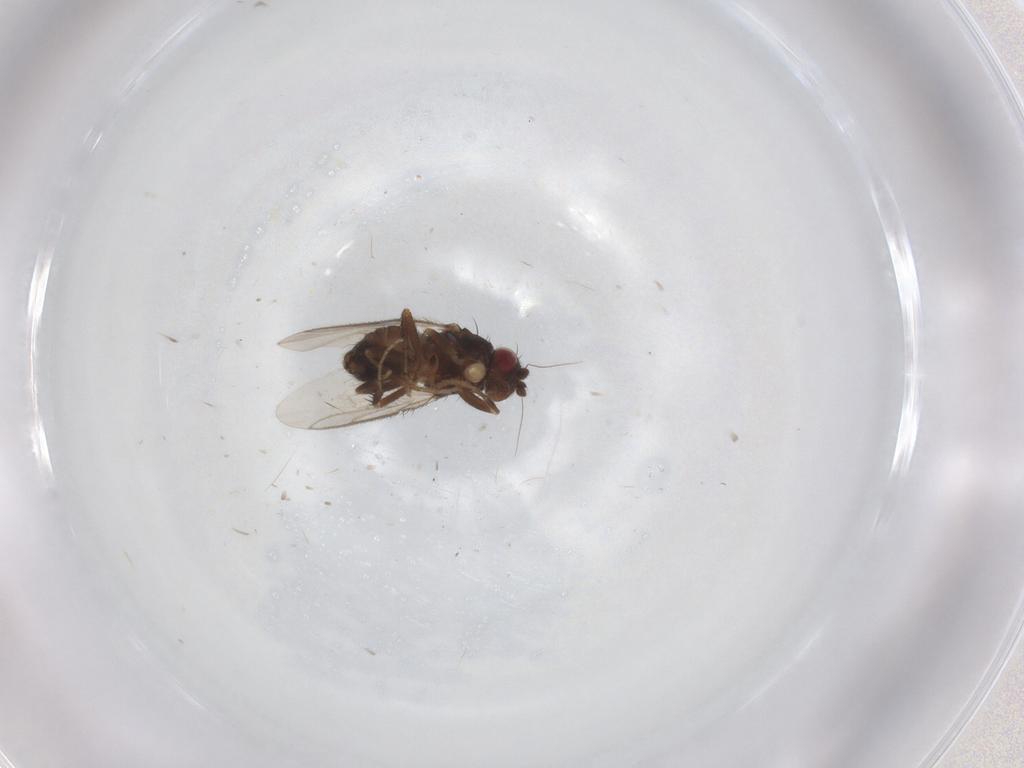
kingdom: Animalia
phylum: Arthropoda
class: Insecta
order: Diptera
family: Sphaeroceridae
